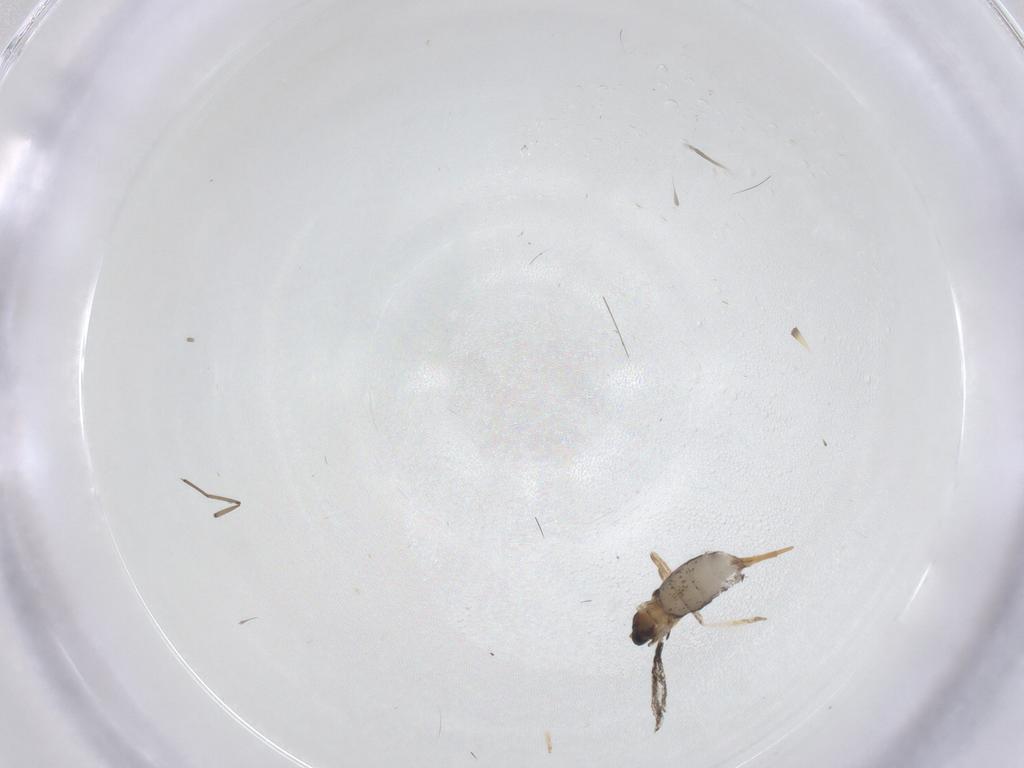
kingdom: Animalia
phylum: Arthropoda
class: Insecta
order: Diptera
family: Cecidomyiidae
